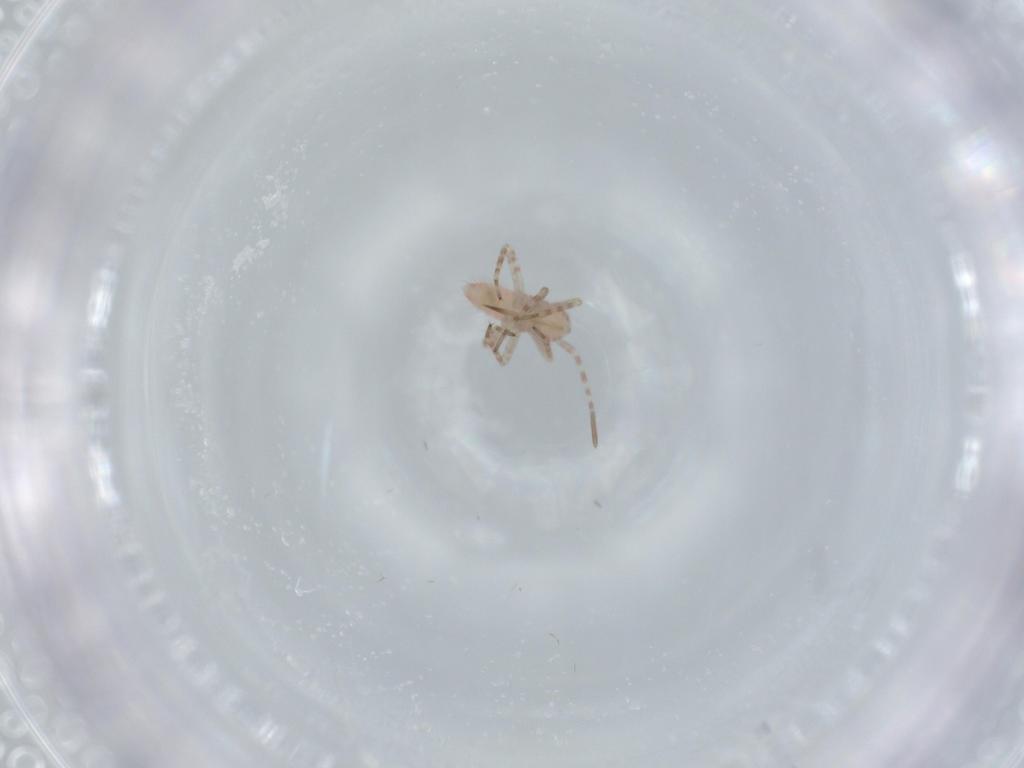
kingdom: Animalia
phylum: Arthropoda
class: Insecta
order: Hemiptera
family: Miridae
